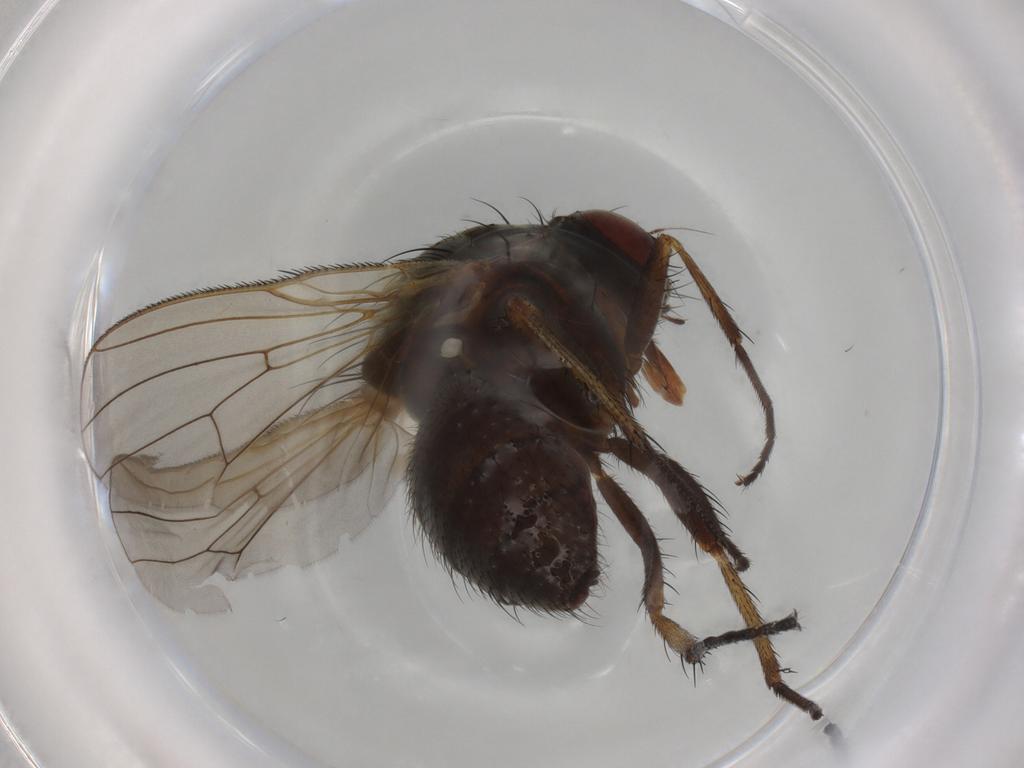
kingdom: Animalia
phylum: Arthropoda
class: Insecta
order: Diptera
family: Anthomyiidae
